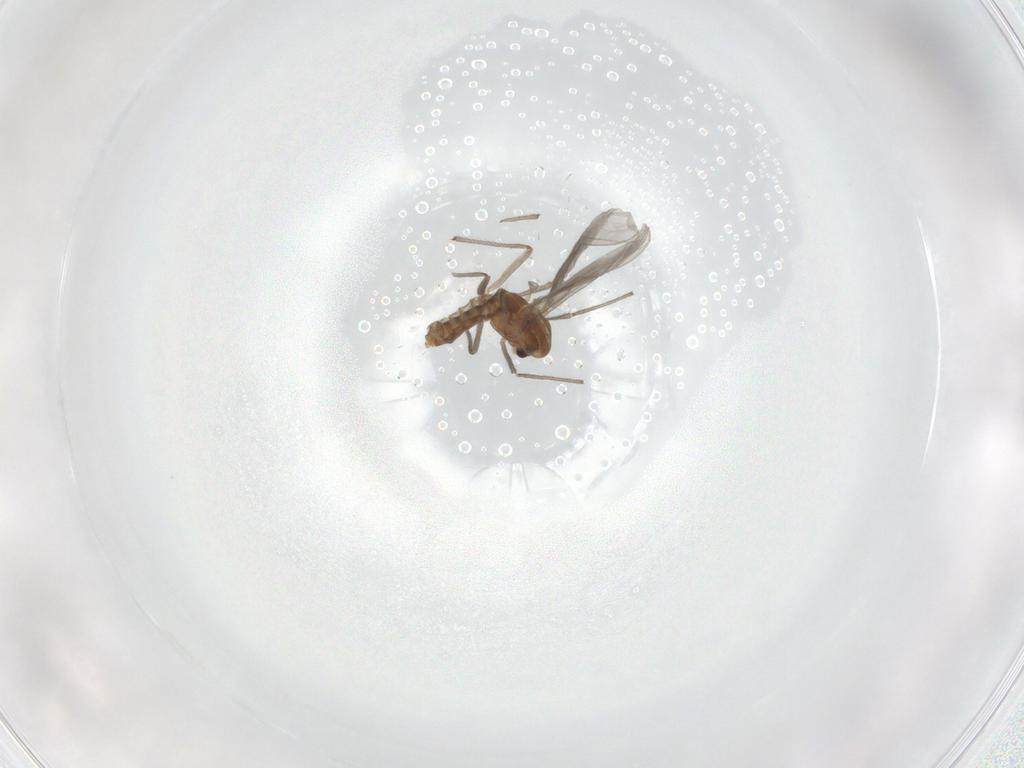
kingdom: Animalia
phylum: Arthropoda
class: Insecta
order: Diptera
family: Chironomidae
